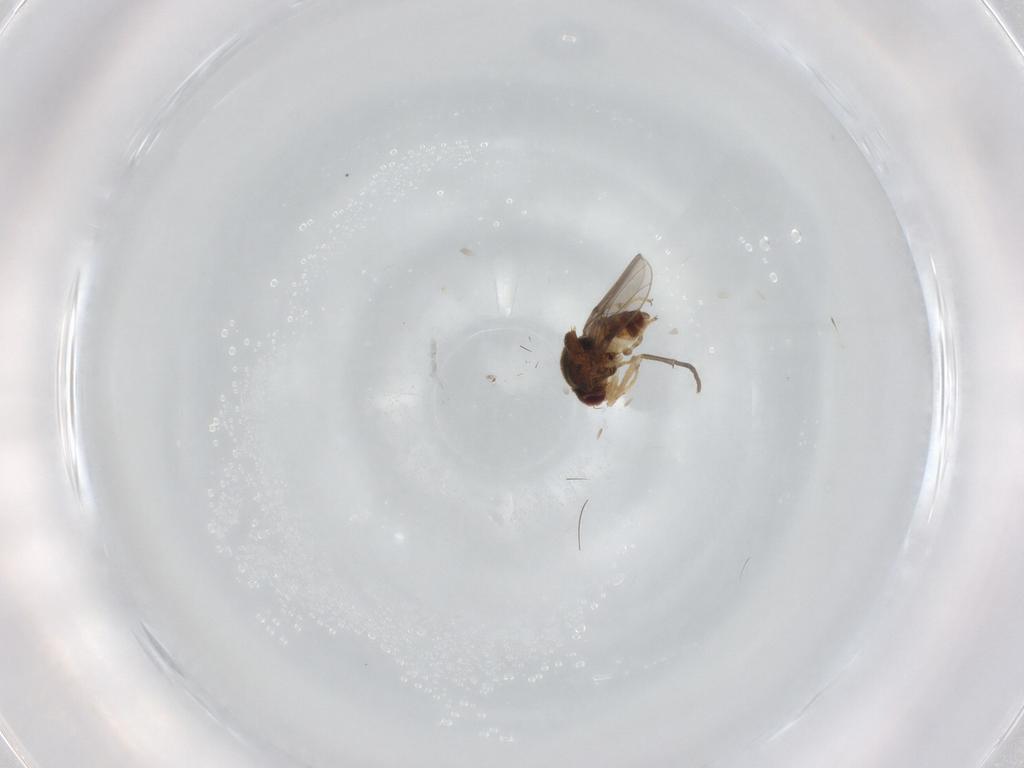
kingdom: Animalia
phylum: Arthropoda
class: Insecta
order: Diptera
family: Chloropidae
